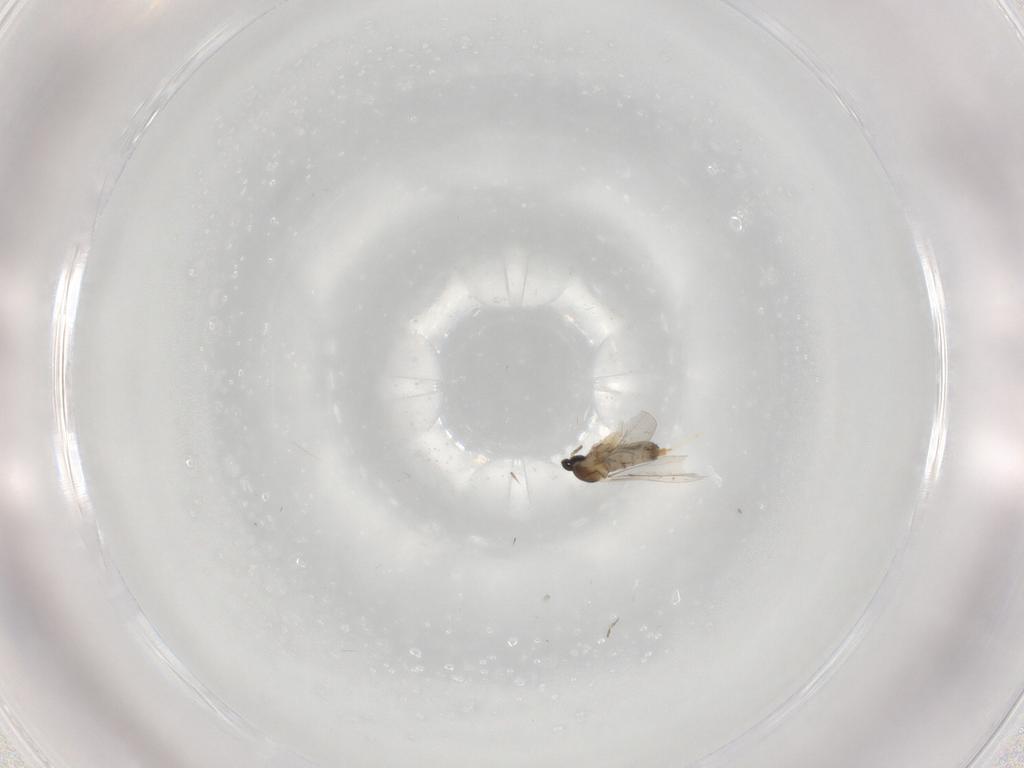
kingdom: Animalia
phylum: Arthropoda
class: Insecta
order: Diptera
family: Cecidomyiidae
